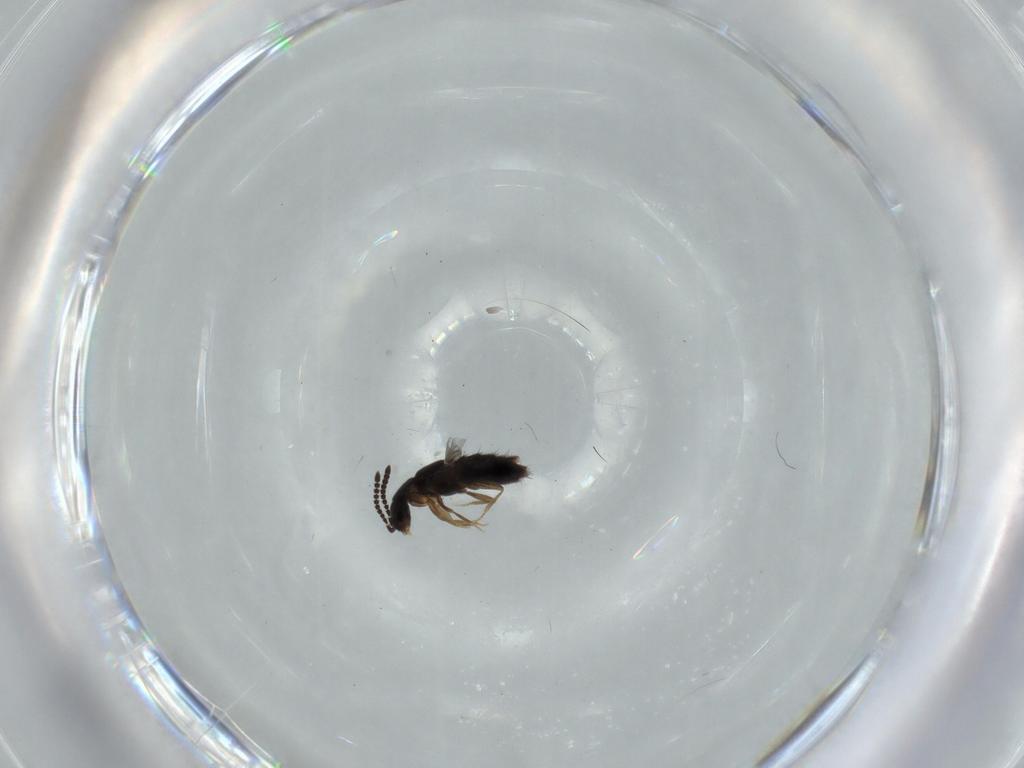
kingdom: Animalia
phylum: Arthropoda
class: Insecta
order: Coleoptera
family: Staphylinidae
